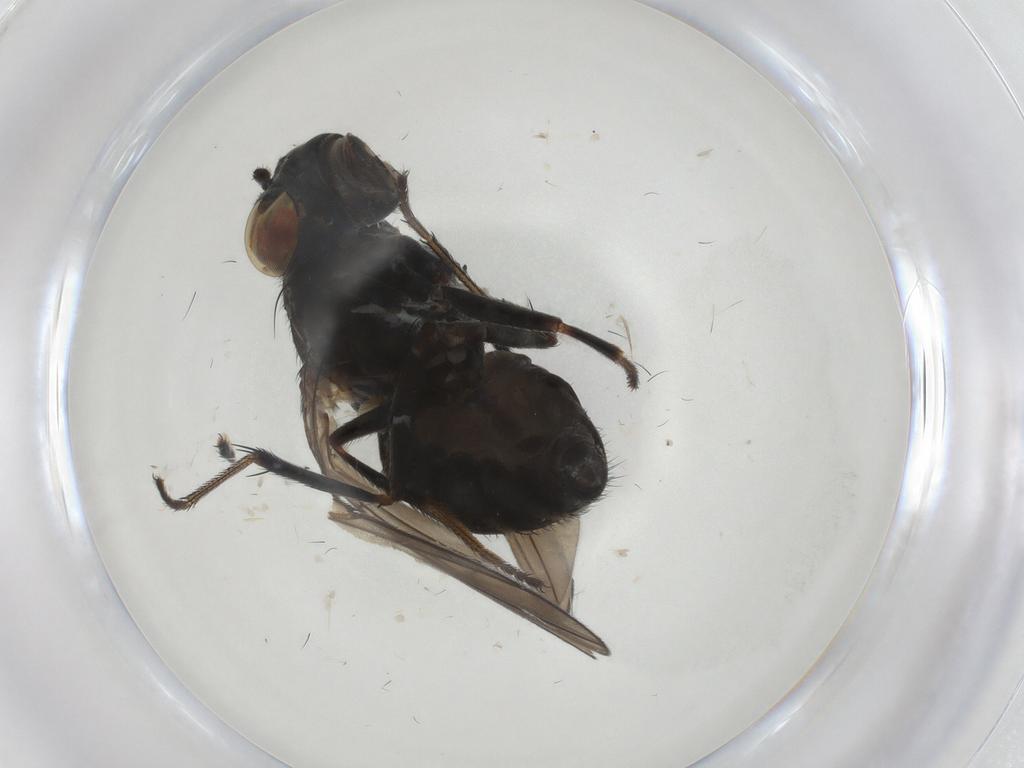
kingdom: Animalia
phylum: Arthropoda
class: Insecta
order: Diptera
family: Ephydridae
